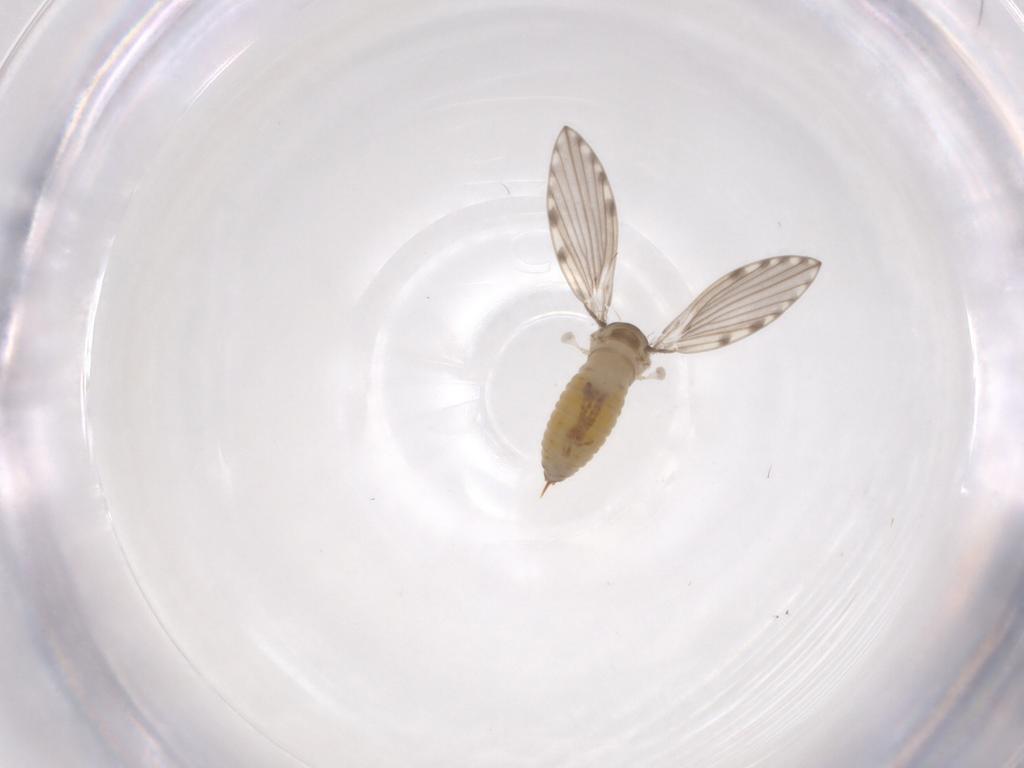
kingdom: Animalia
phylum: Arthropoda
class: Insecta
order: Diptera
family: Psychodidae
